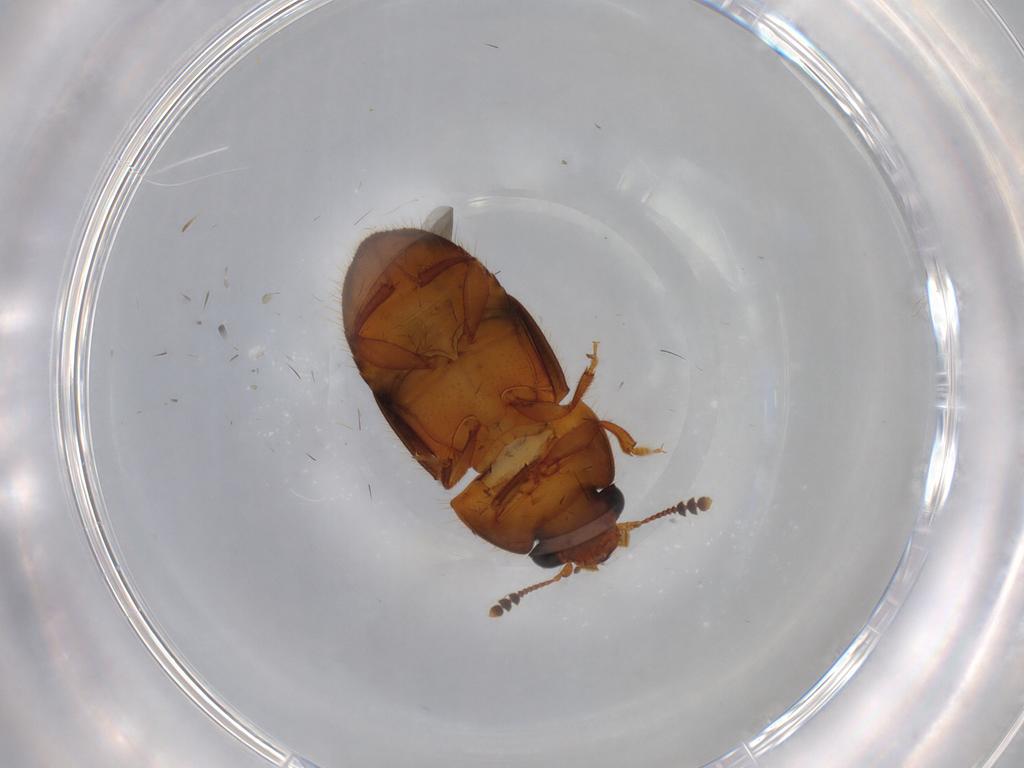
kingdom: Animalia
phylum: Arthropoda
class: Insecta
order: Coleoptera
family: Nitidulidae
